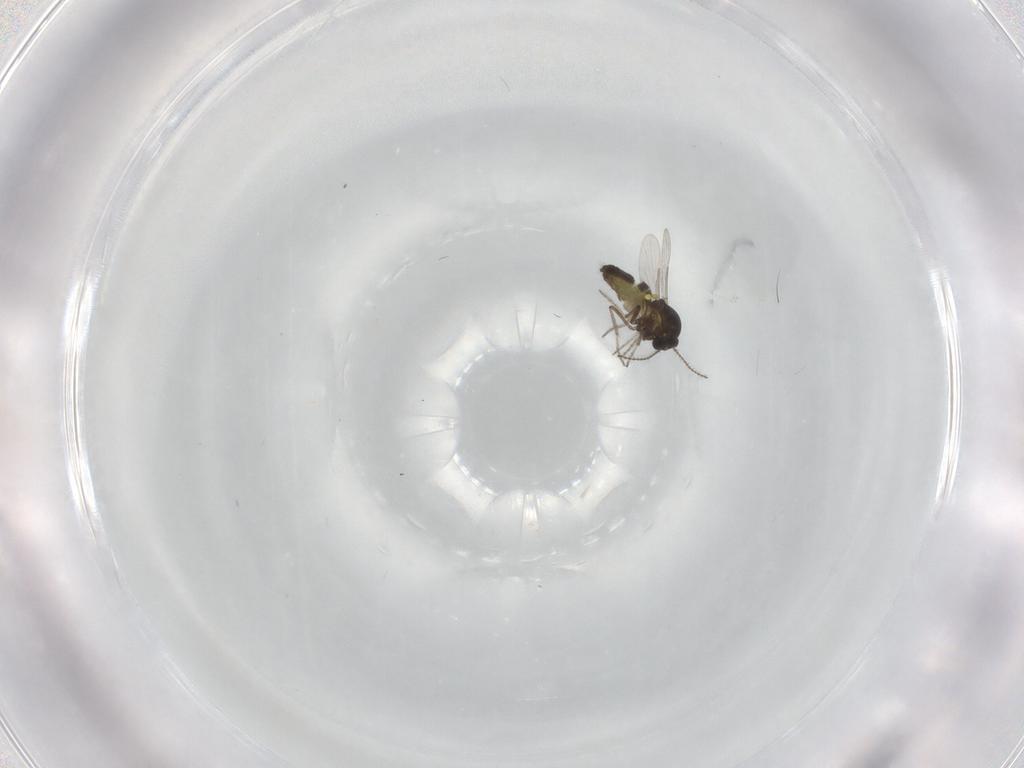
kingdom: Animalia
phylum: Arthropoda
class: Insecta
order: Diptera
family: Ceratopogonidae
